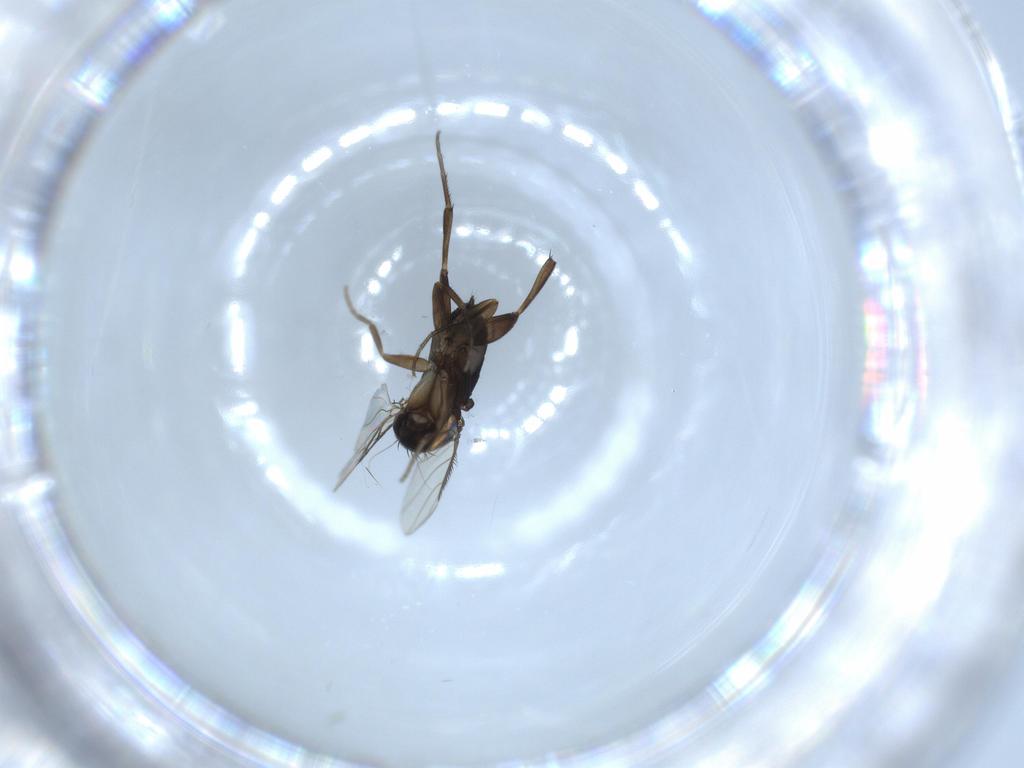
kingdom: Animalia
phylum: Arthropoda
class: Insecta
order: Diptera
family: Phoridae
